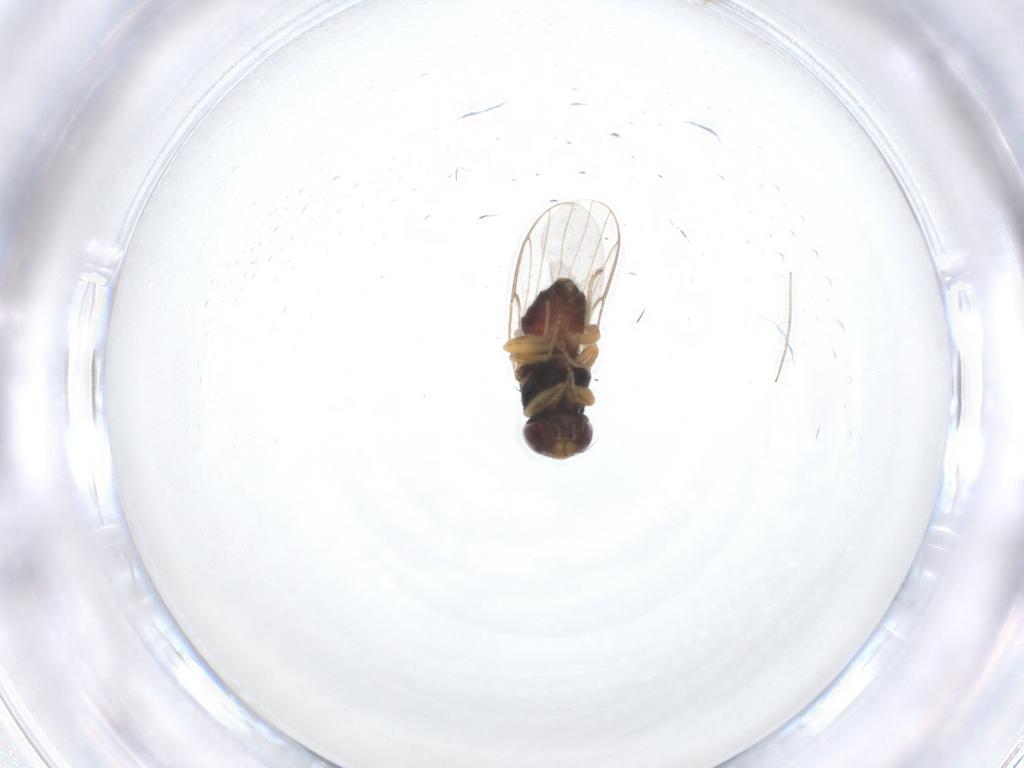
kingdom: Animalia
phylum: Arthropoda
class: Insecta
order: Diptera
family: Chloropidae
